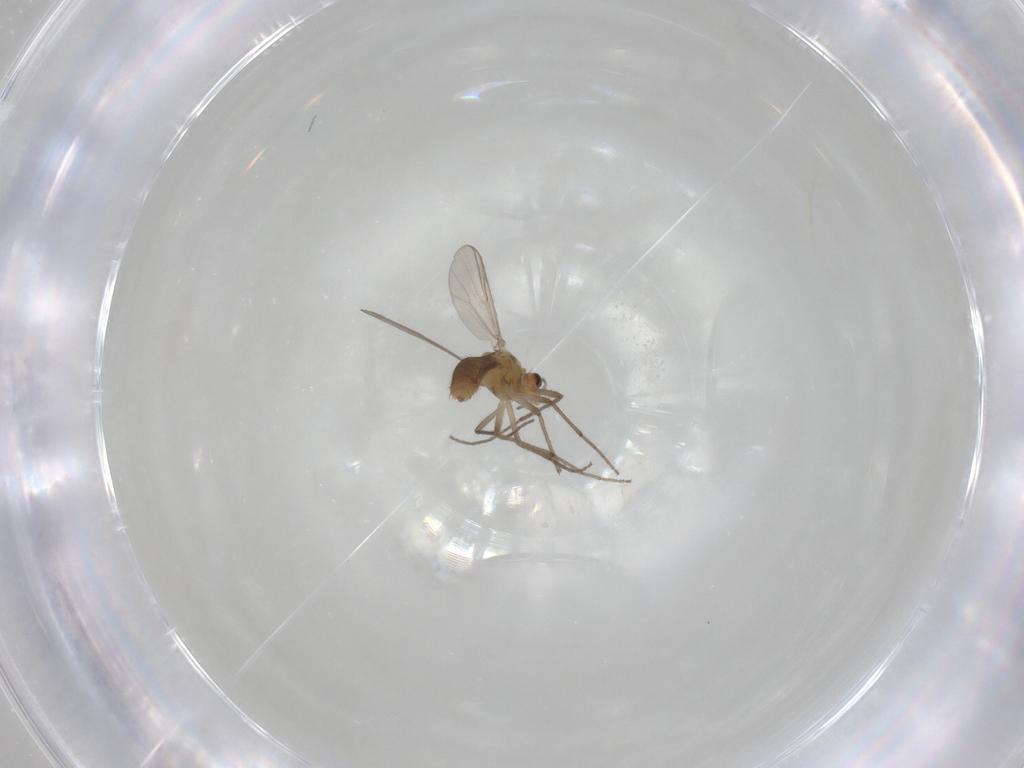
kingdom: Animalia
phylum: Arthropoda
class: Insecta
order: Diptera
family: Chironomidae
